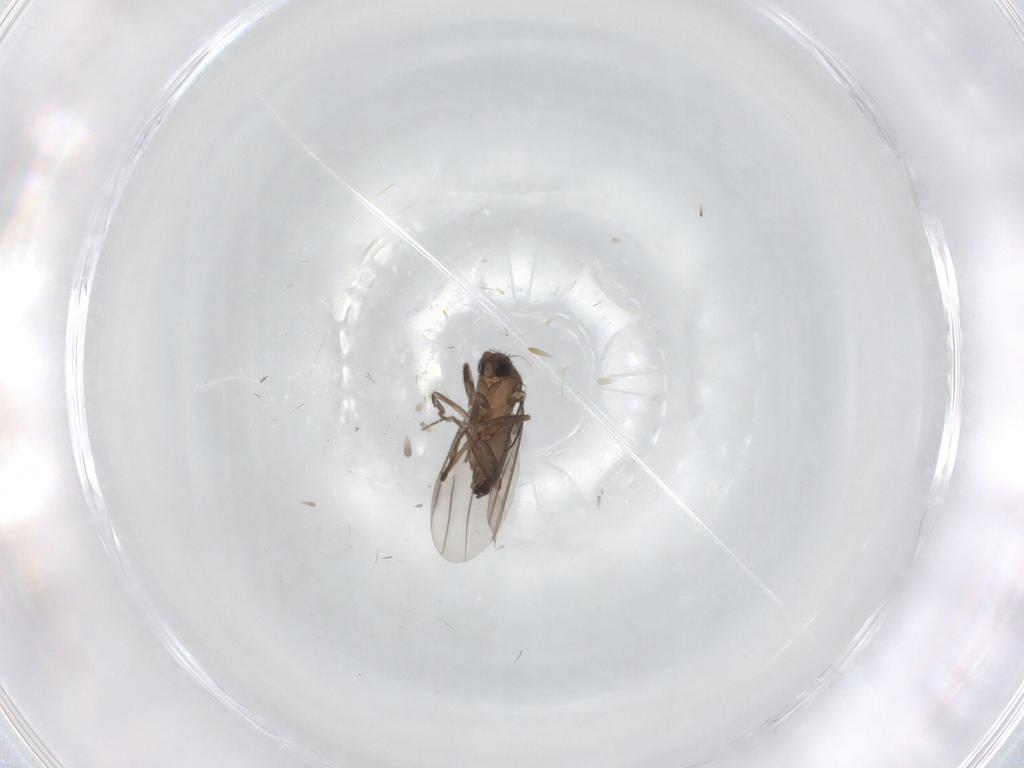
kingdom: Animalia
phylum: Arthropoda
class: Insecta
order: Diptera
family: Phoridae
